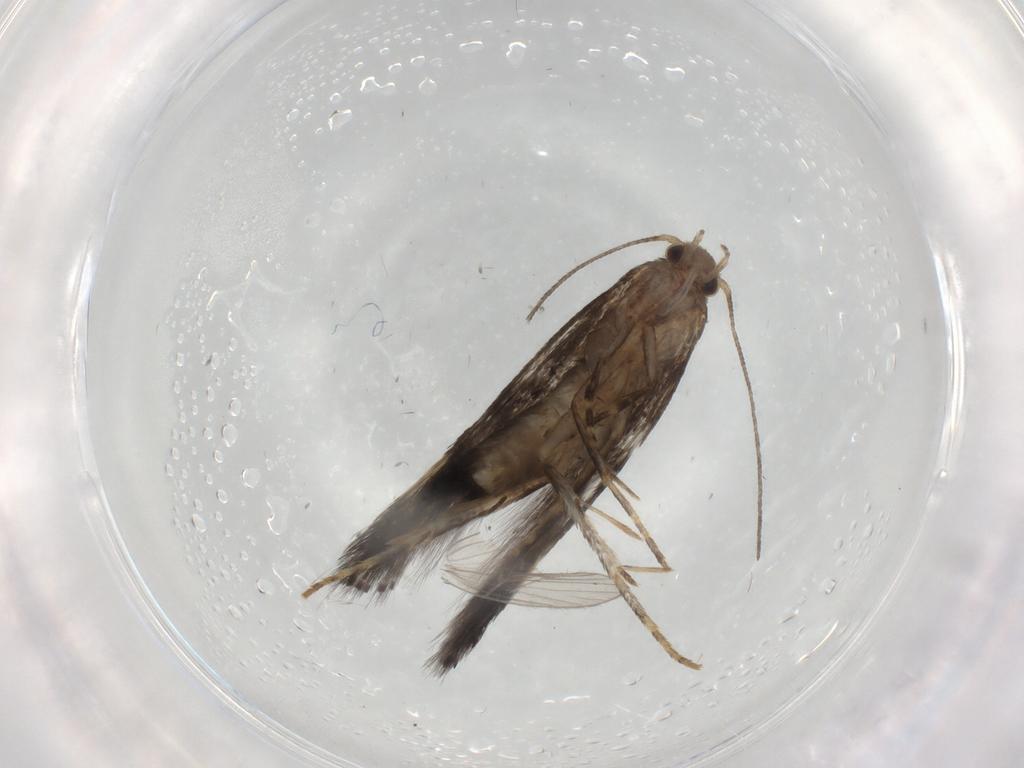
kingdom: Animalia
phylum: Arthropoda
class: Insecta
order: Lepidoptera
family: Elachistidae
